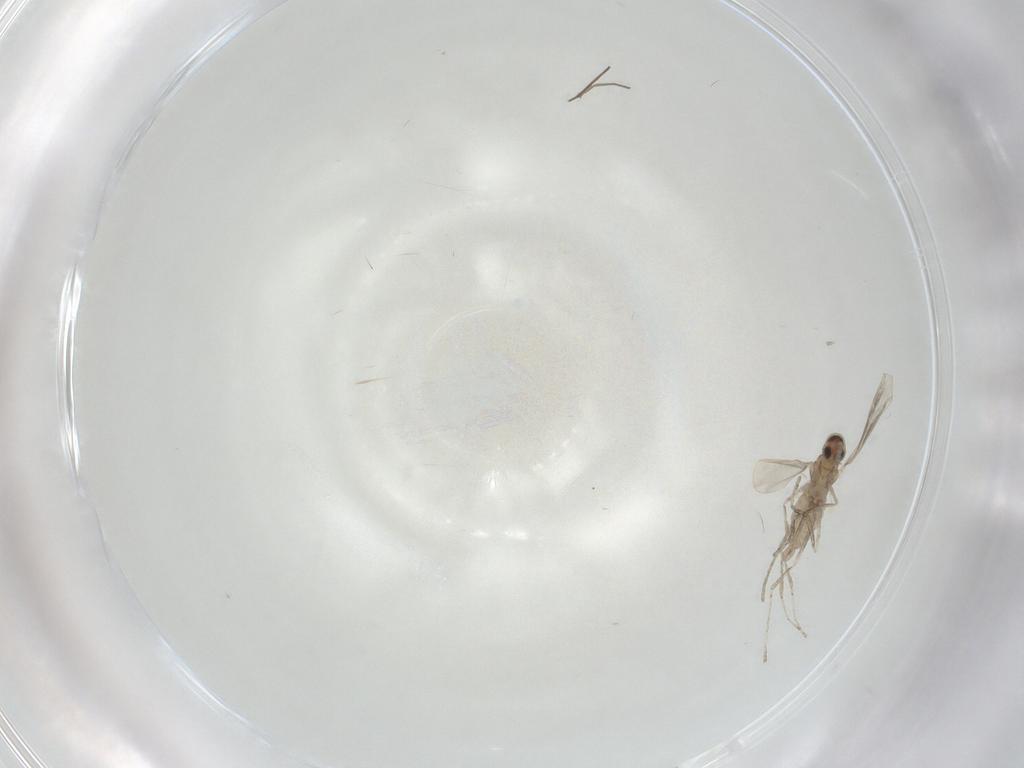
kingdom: Animalia
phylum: Arthropoda
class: Insecta
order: Diptera
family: Chironomidae
